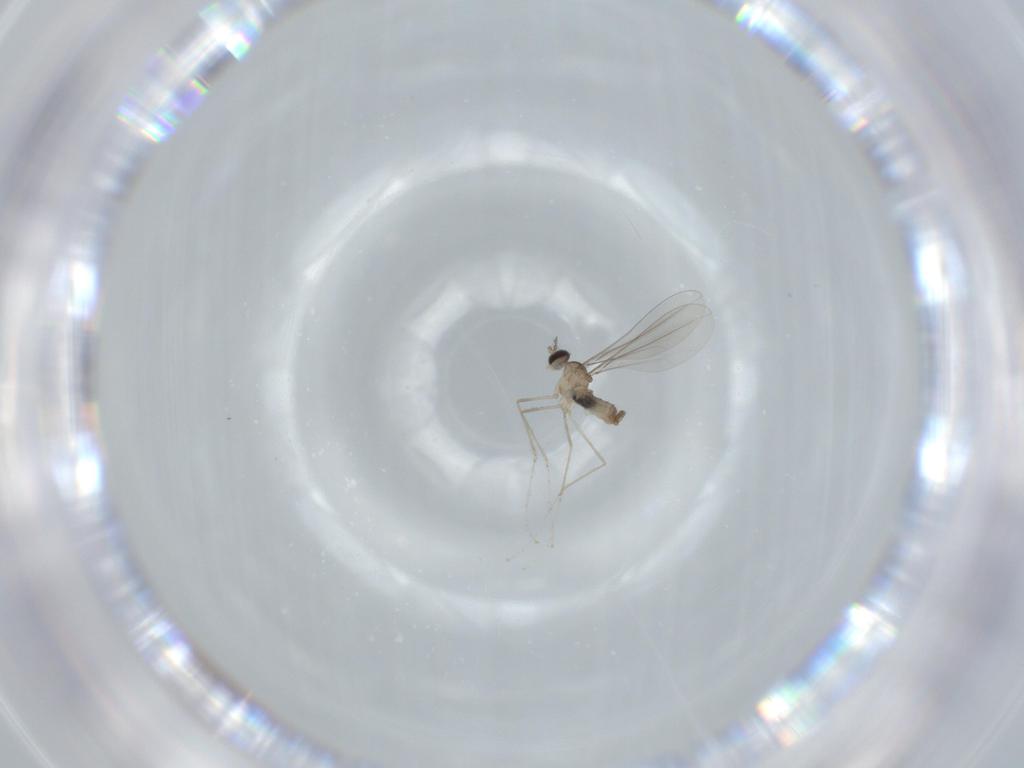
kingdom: Animalia
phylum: Arthropoda
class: Insecta
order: Diptera
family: Cecidomyiidae
